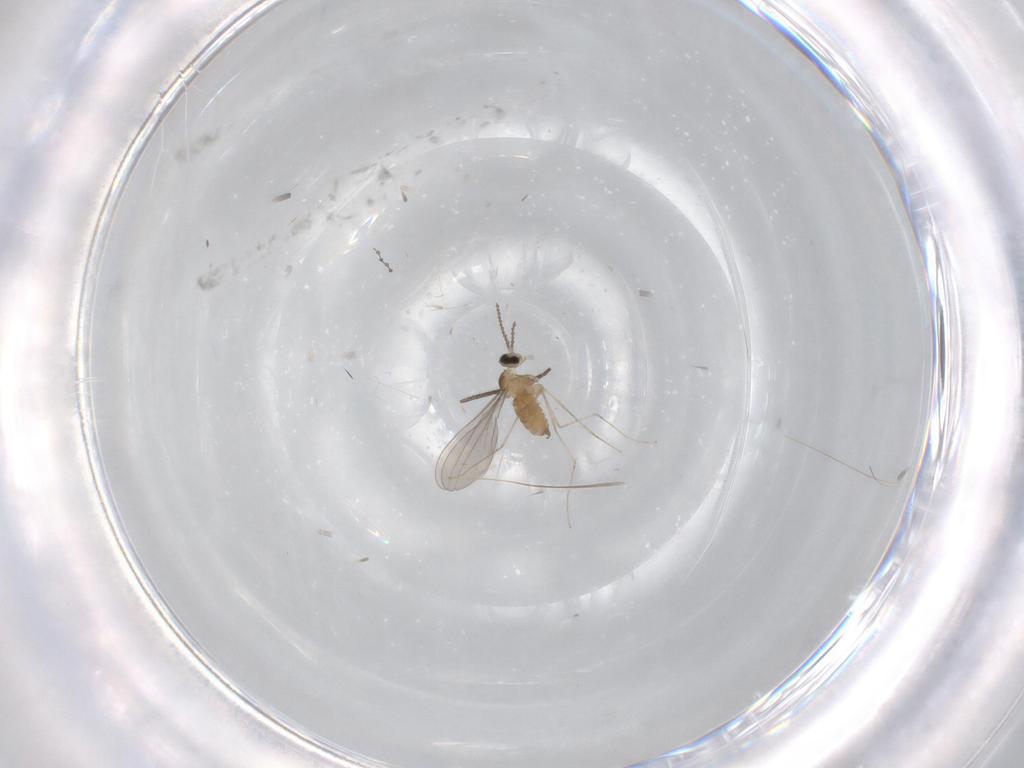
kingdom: Animalia
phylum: Arthropoda
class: Insecta
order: Diptera
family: Sciaridae
